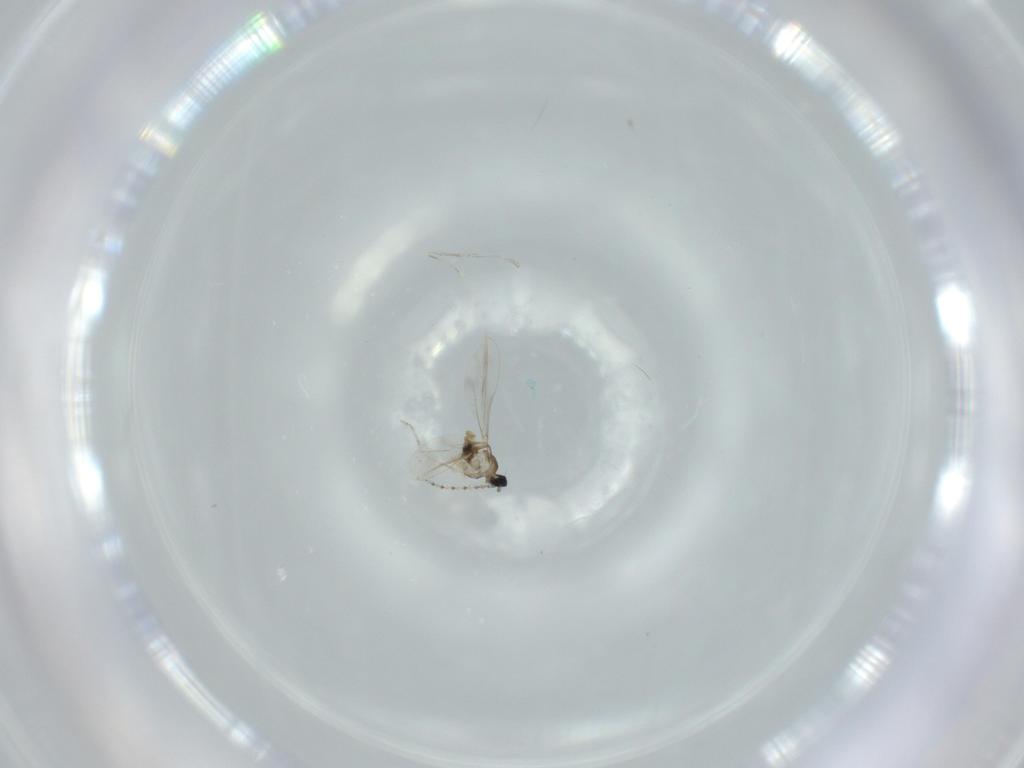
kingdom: Animalia
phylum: Arthropoda
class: Insecta
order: Diptera
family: Cecidomyiidae
